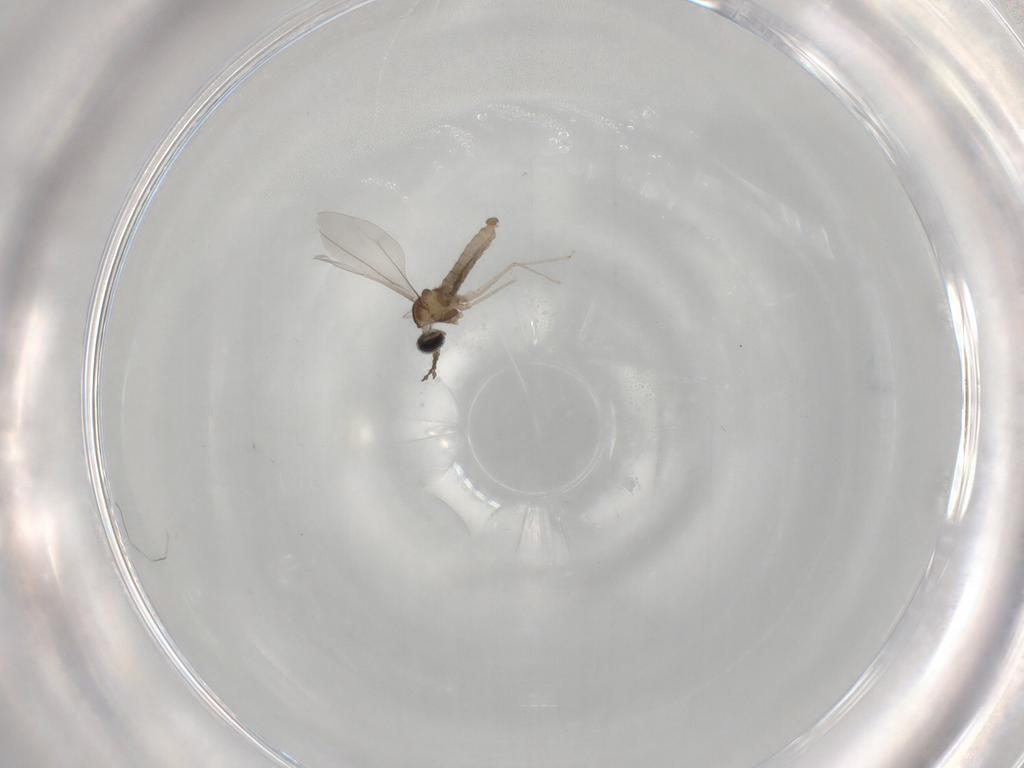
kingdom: Animalia
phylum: Arthropoda
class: Insecta
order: Diptera
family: Cecidomyiidae
